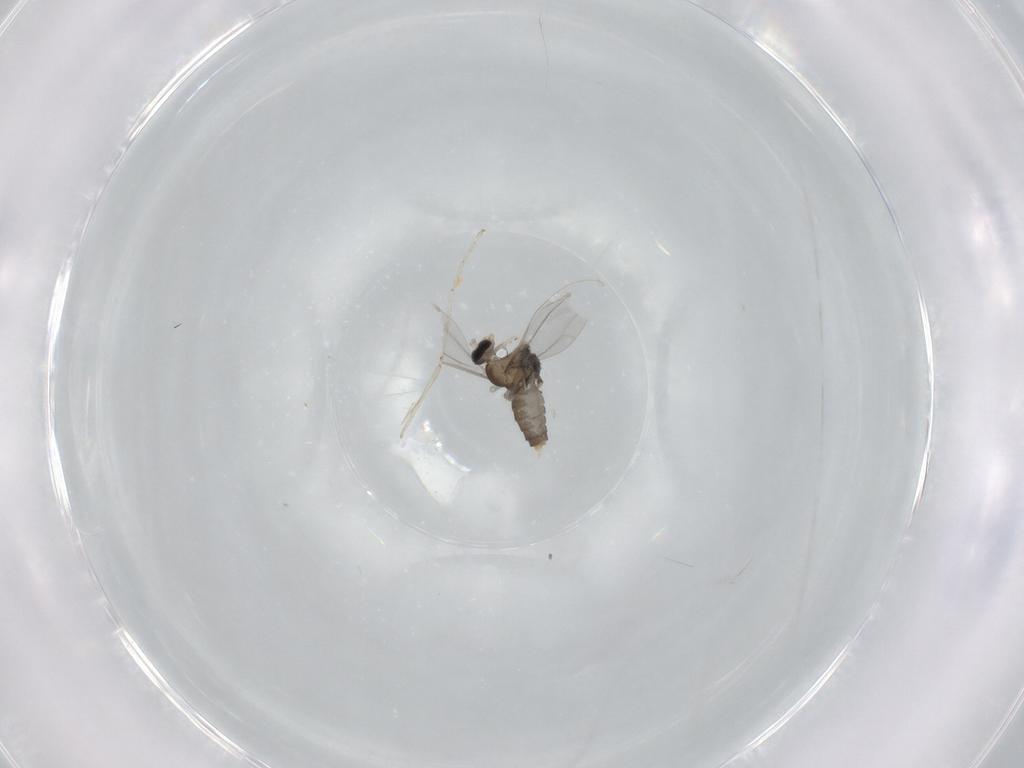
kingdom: Animalia
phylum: Arthropoda
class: Insecta
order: Diptera
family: Cecidomyiidae
